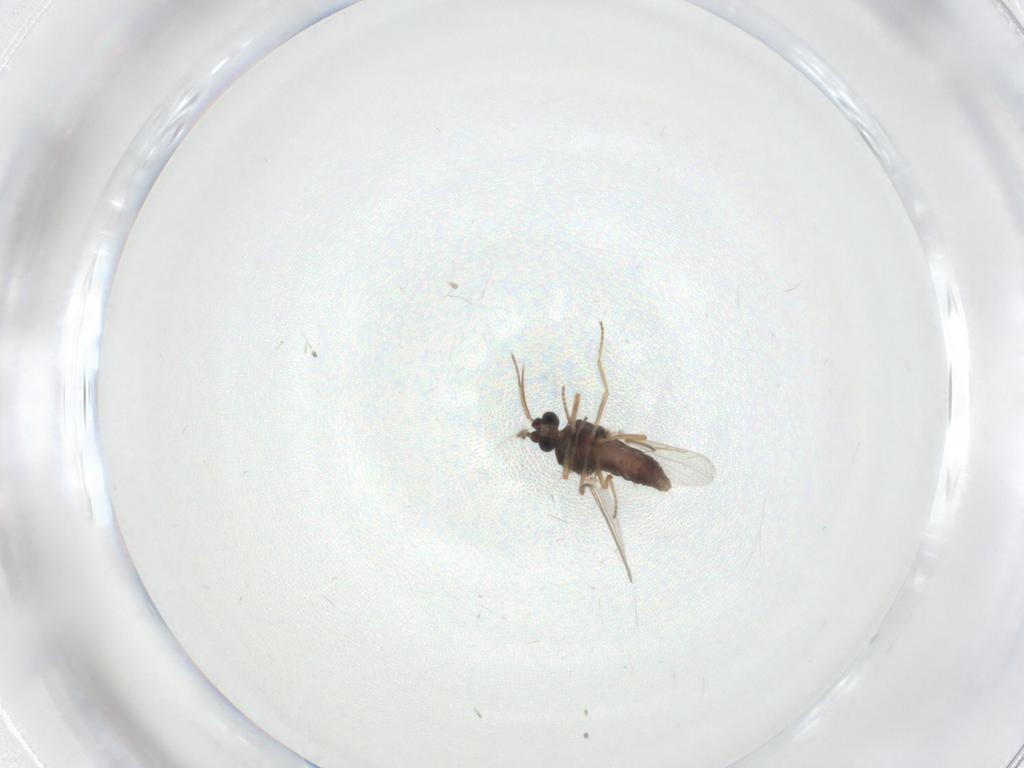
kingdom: Animalia
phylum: Arthropoda
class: Insecta
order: Diptera
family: Ceratopogonidae
